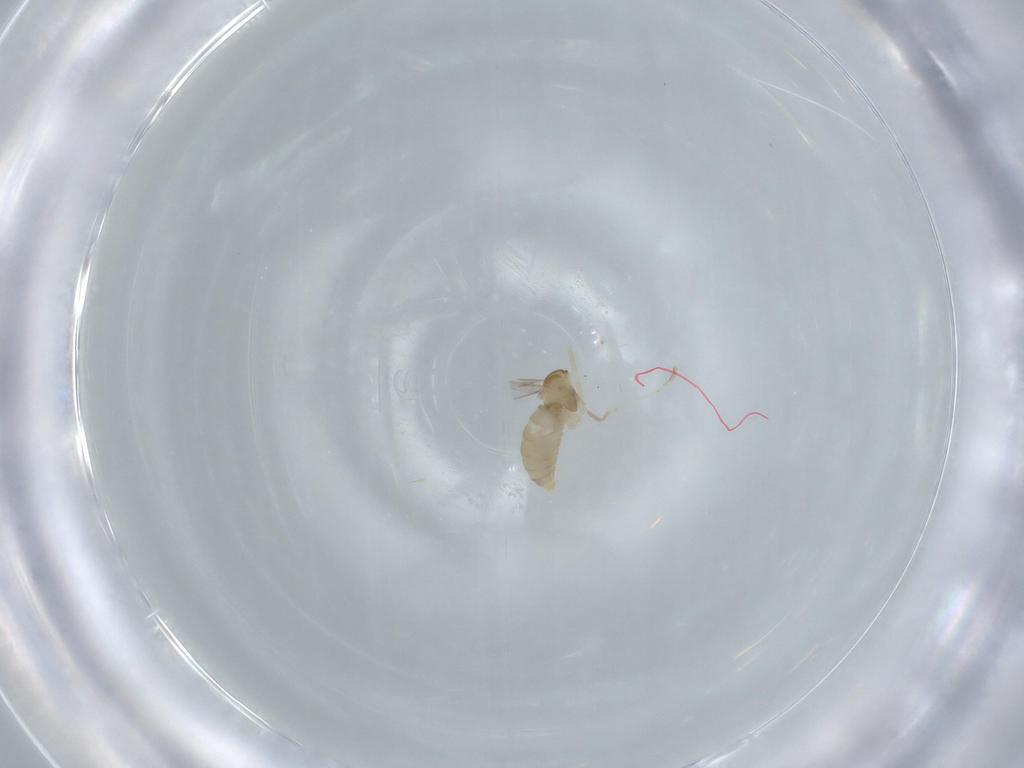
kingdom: Animalia
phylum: Arthropoda
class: Insecta
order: Diptera
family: Cecidomyiidae
